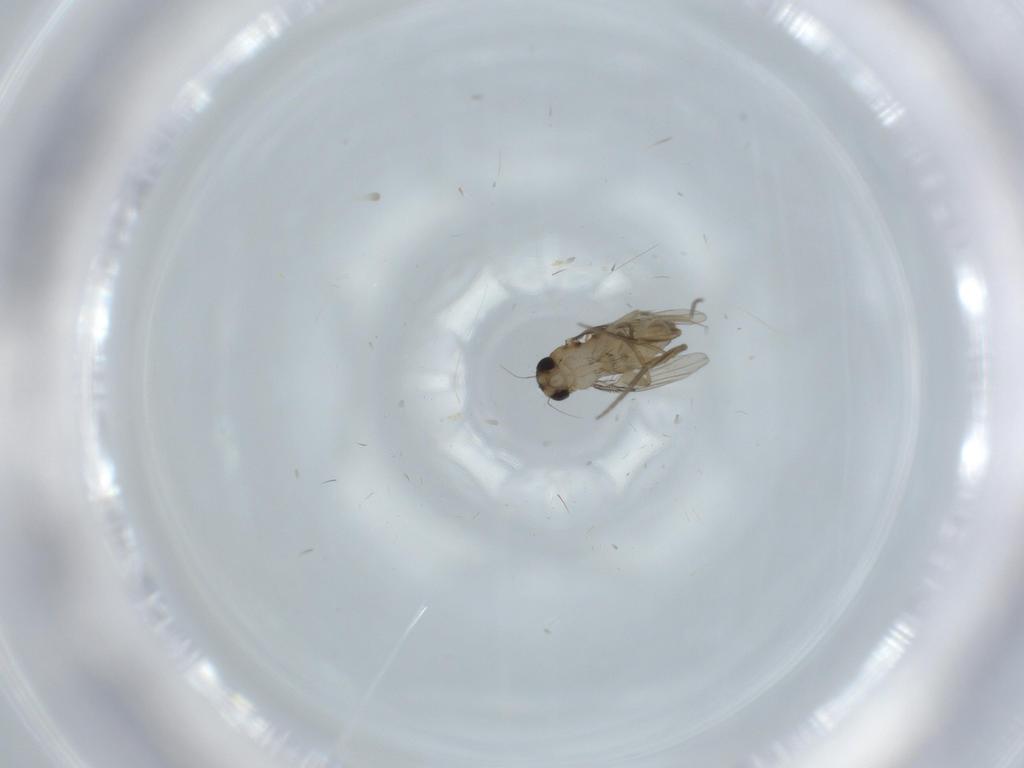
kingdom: Animalia
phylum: Arthropoda
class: Insecta
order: Diptera
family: Phoridae
